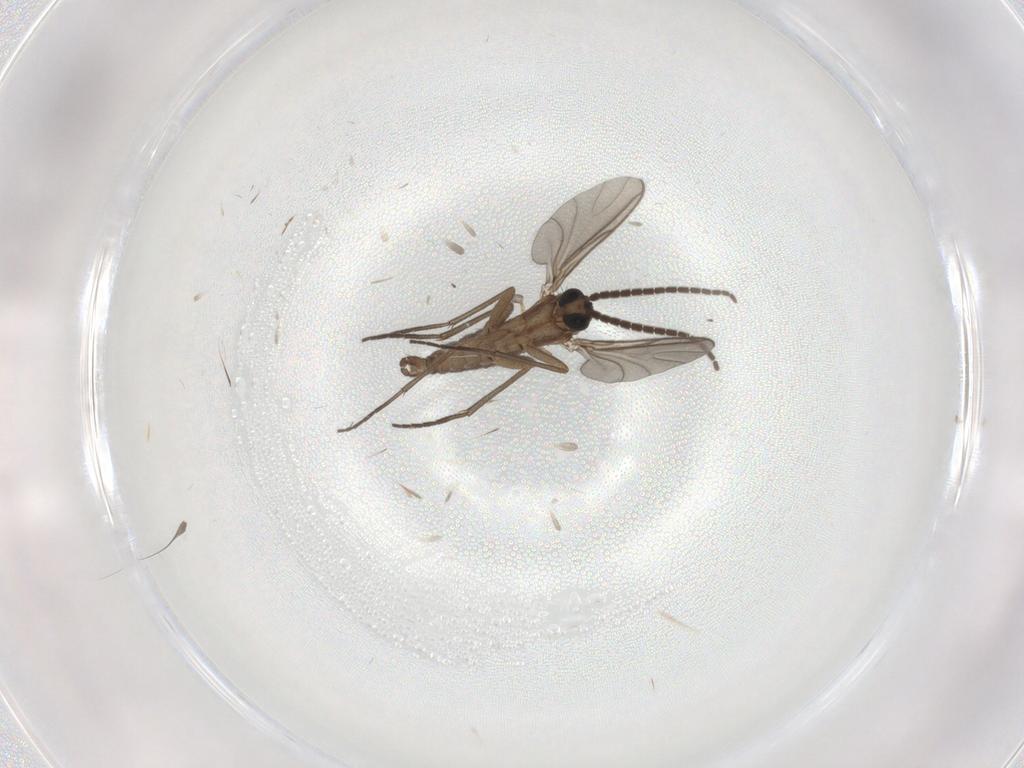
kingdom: Animalia
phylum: Arthropoda
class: Insecta
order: Diptera
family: Sciaridae
